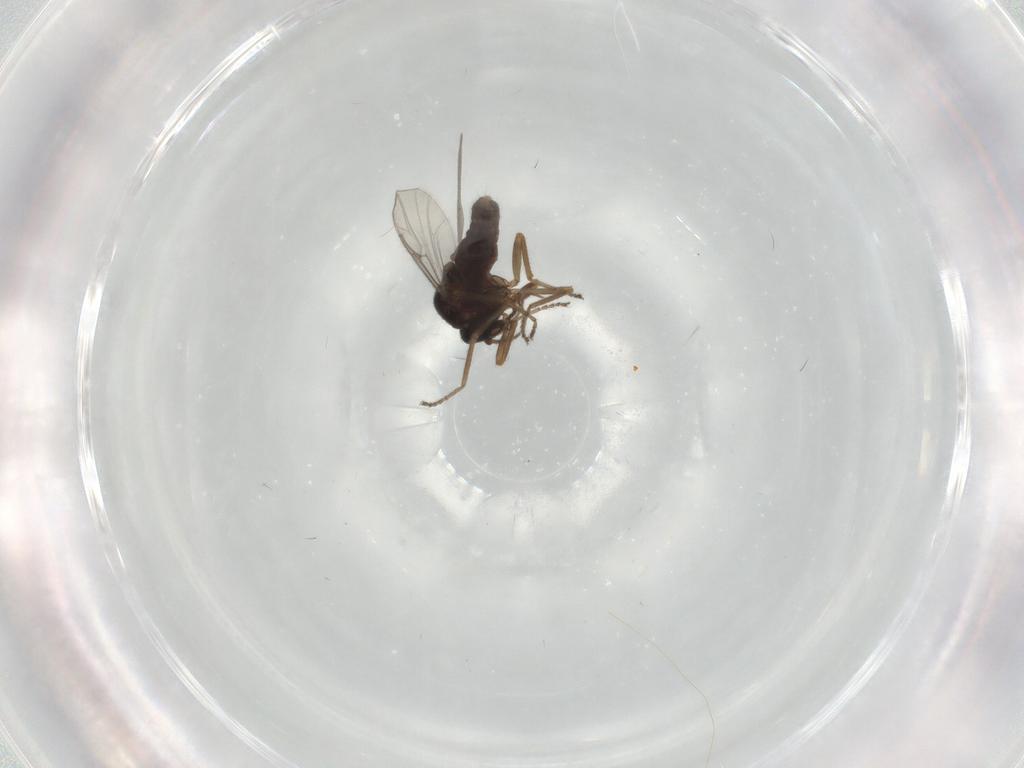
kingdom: Animalia
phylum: Arthropoda
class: Insecta
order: Diptera
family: Ceratopogonidae
